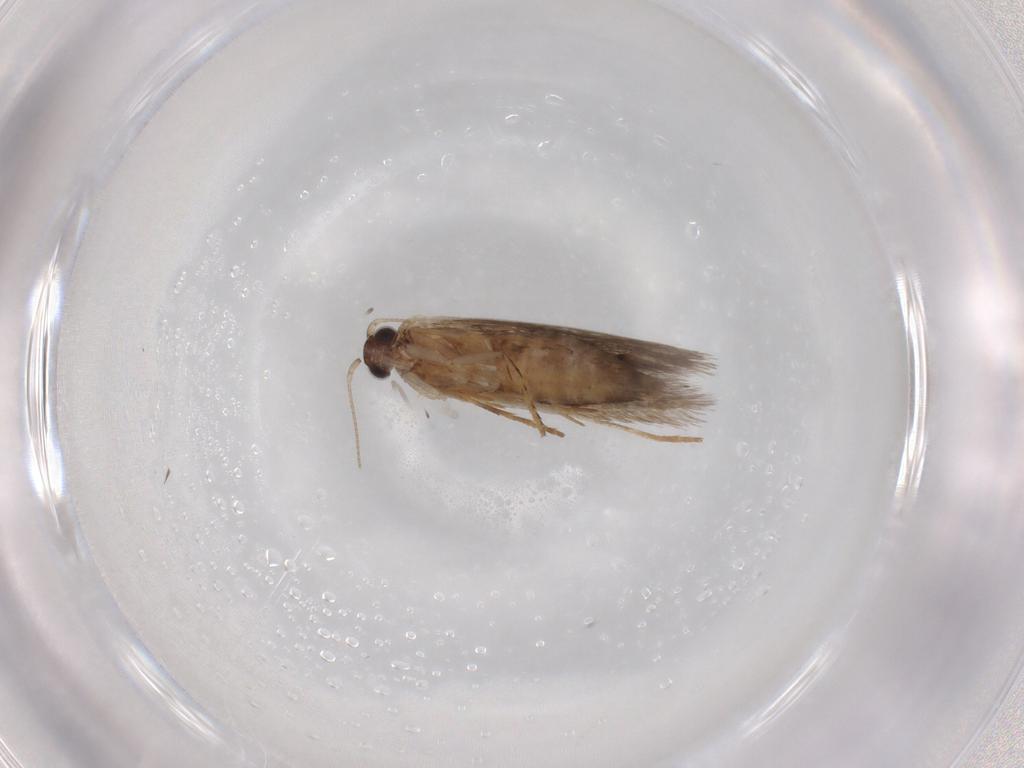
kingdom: Animalia
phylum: Arthropoda
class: Insecta
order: Lepidoptera
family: Tineidae
